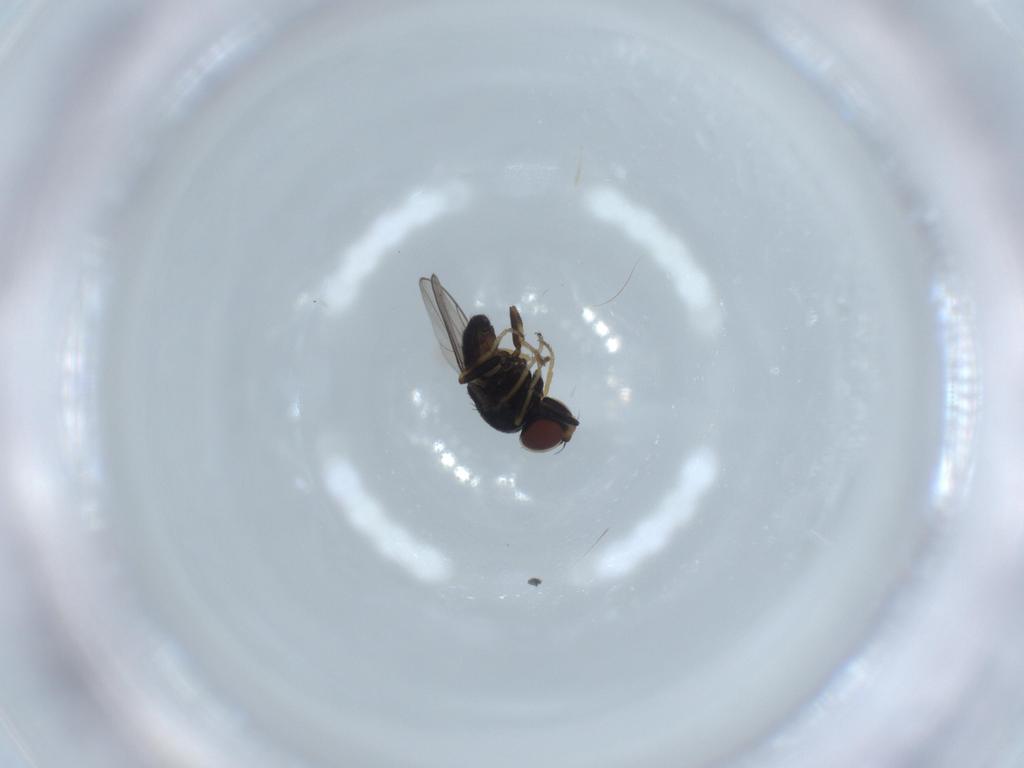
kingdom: Animalia
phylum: Arthropoda
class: Insecta
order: Diptera
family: Chloropidae
